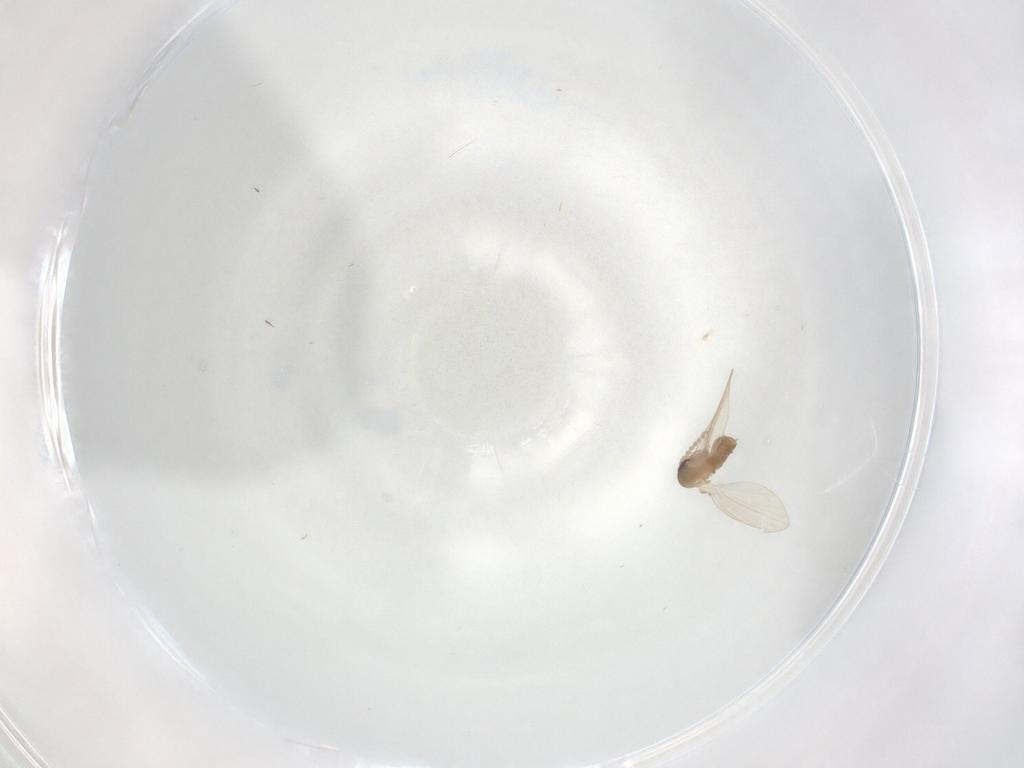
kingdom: Animalia
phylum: Arthropoda
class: Insecta
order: Diptera
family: Psychodidae
